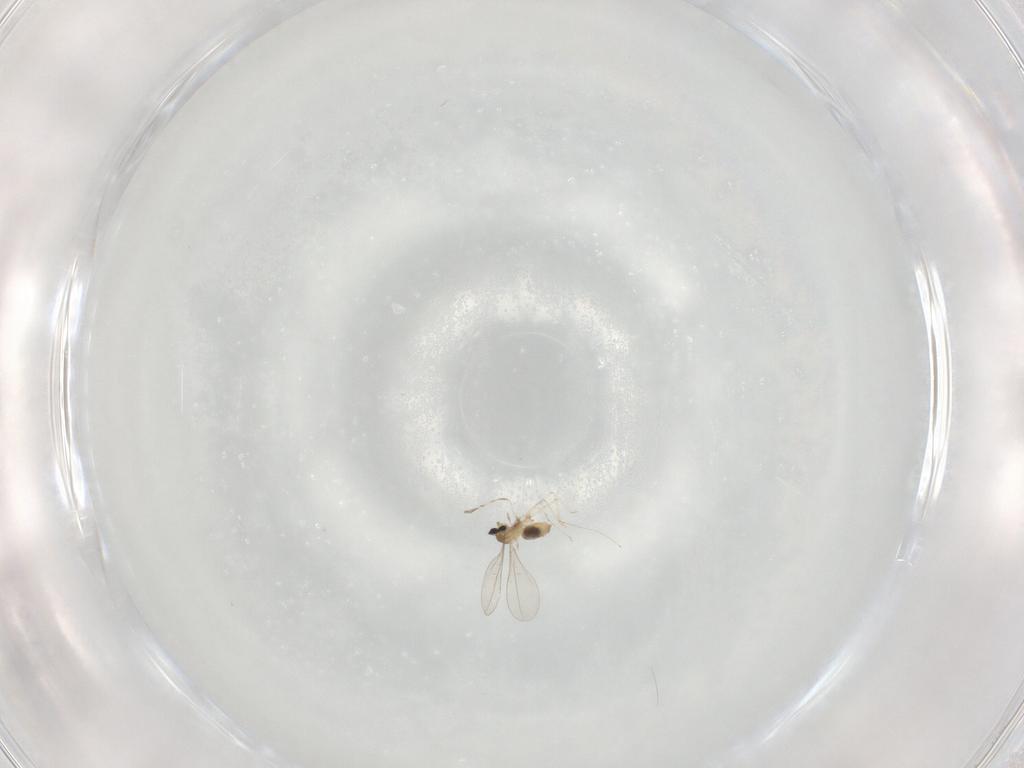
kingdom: Animalia
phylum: Arthropoda
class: Insecta
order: Diptera
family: Cecidomyiidae
